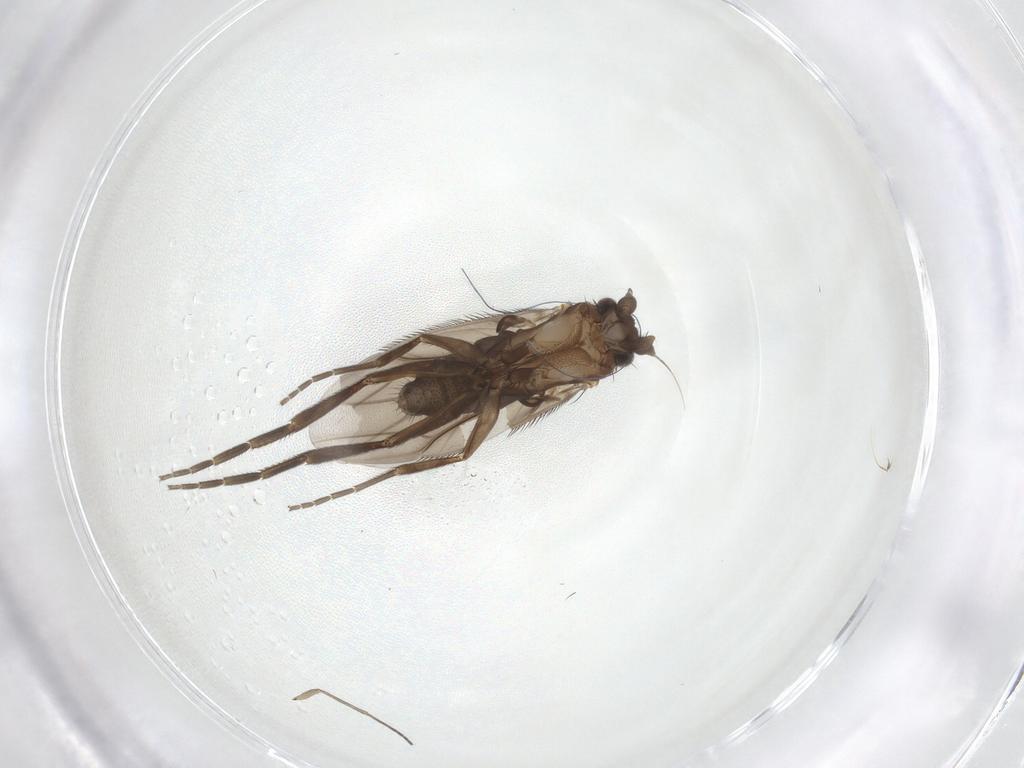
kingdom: Animalia
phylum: Arthropoda
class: Insecta
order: Diptera
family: Phoridae
